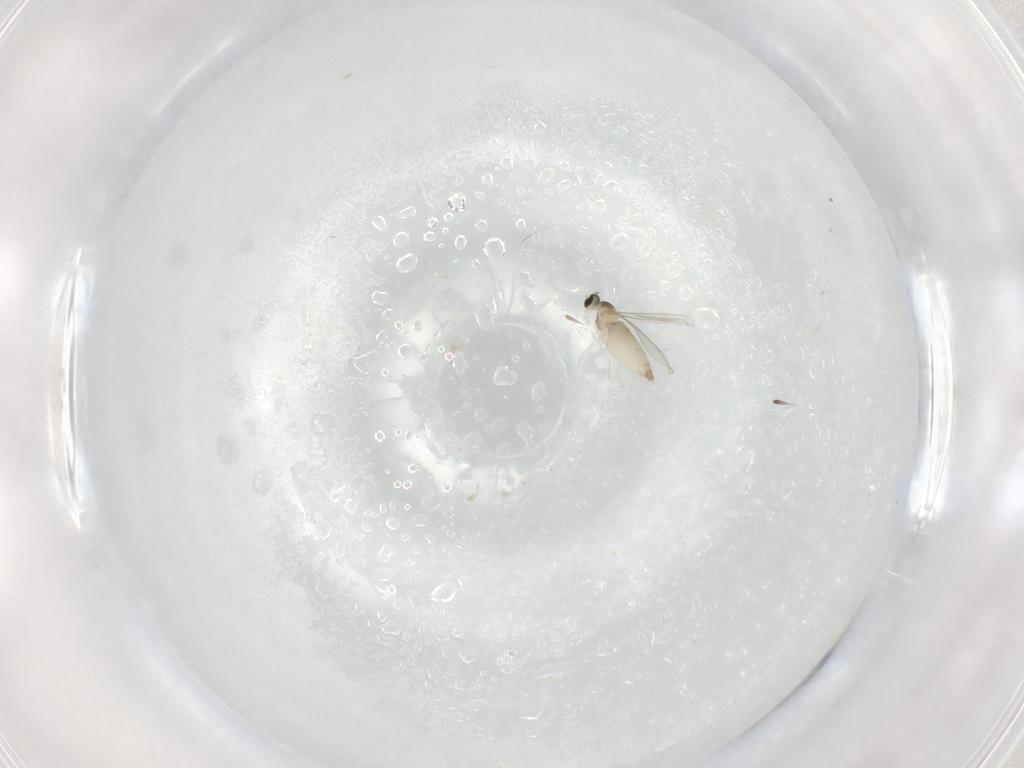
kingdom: Animalia
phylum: Arthropoda
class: Insecta
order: Diptera
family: Cecidomyiidae
